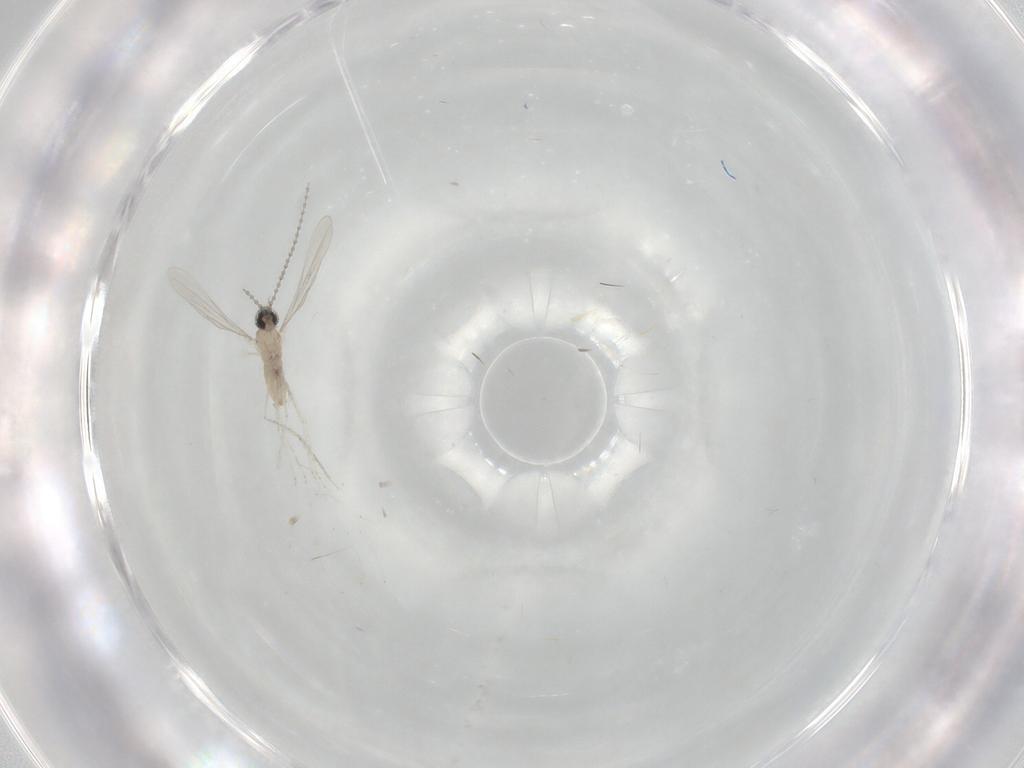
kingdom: Animalia
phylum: Arthropoda
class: Insecta
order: Diptera
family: Cecidomyiidae
